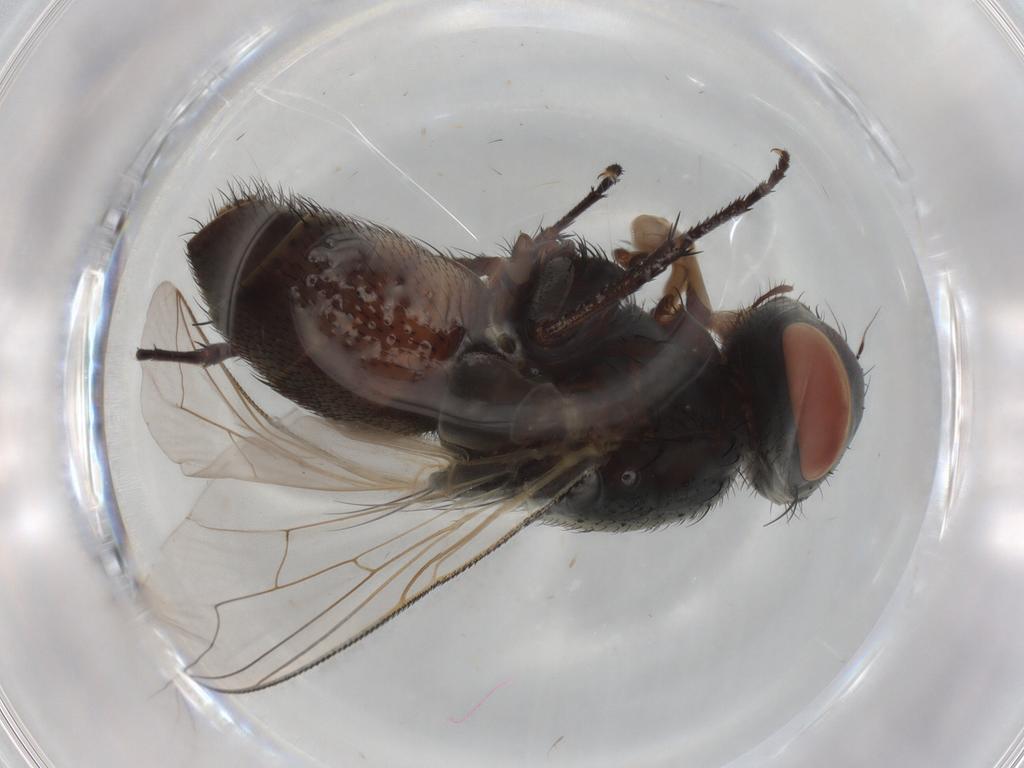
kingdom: Animalia
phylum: Arthropoda
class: Insecta
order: Diptera
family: Sarcophagidae
